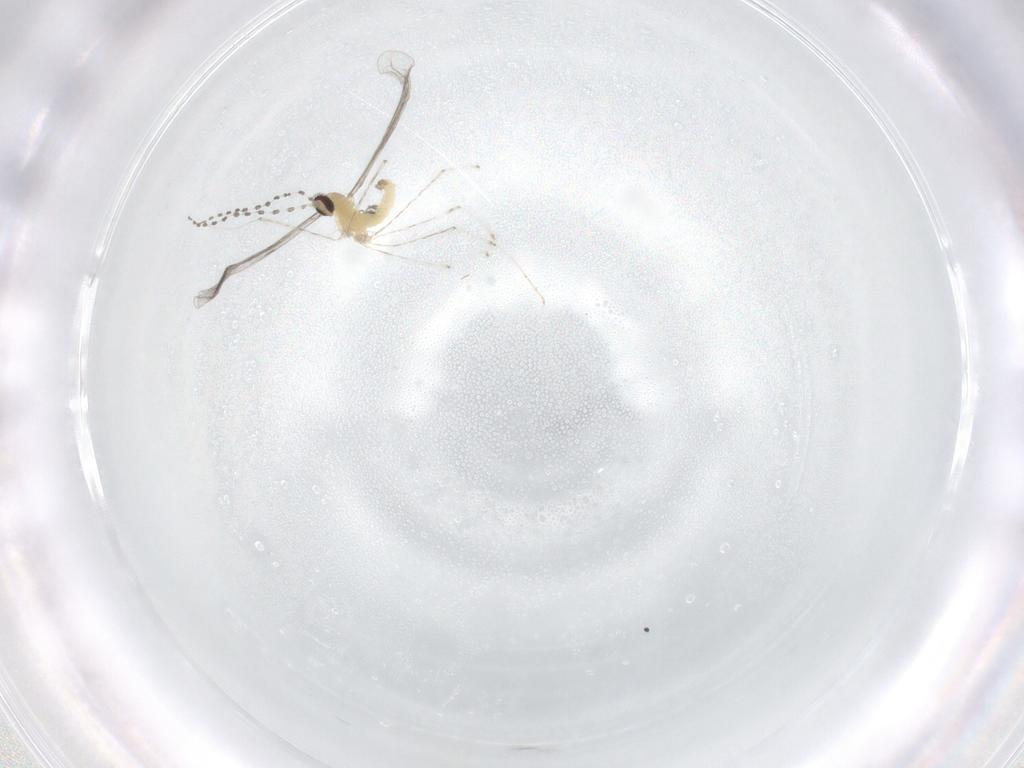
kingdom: Animalia
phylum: Arthropoda
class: Insecta
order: Diptera
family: Cecidomyiidae
